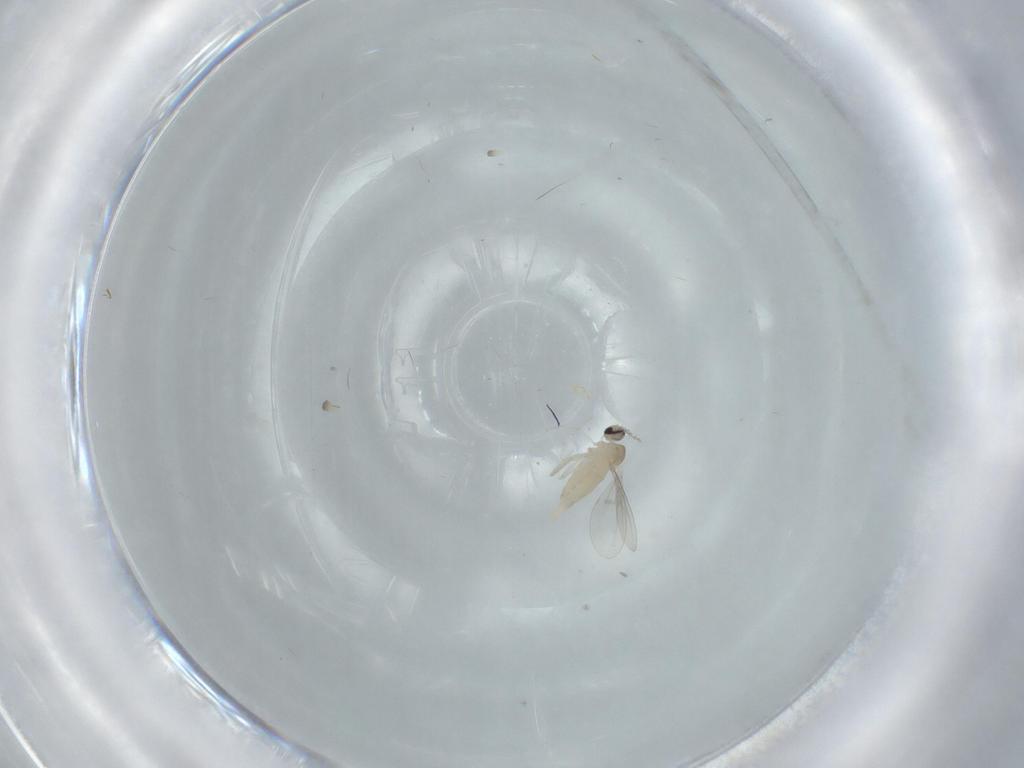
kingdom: Animalia
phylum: Arthropoda
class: Insecta
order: Diptera
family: Cecidomyiidae
